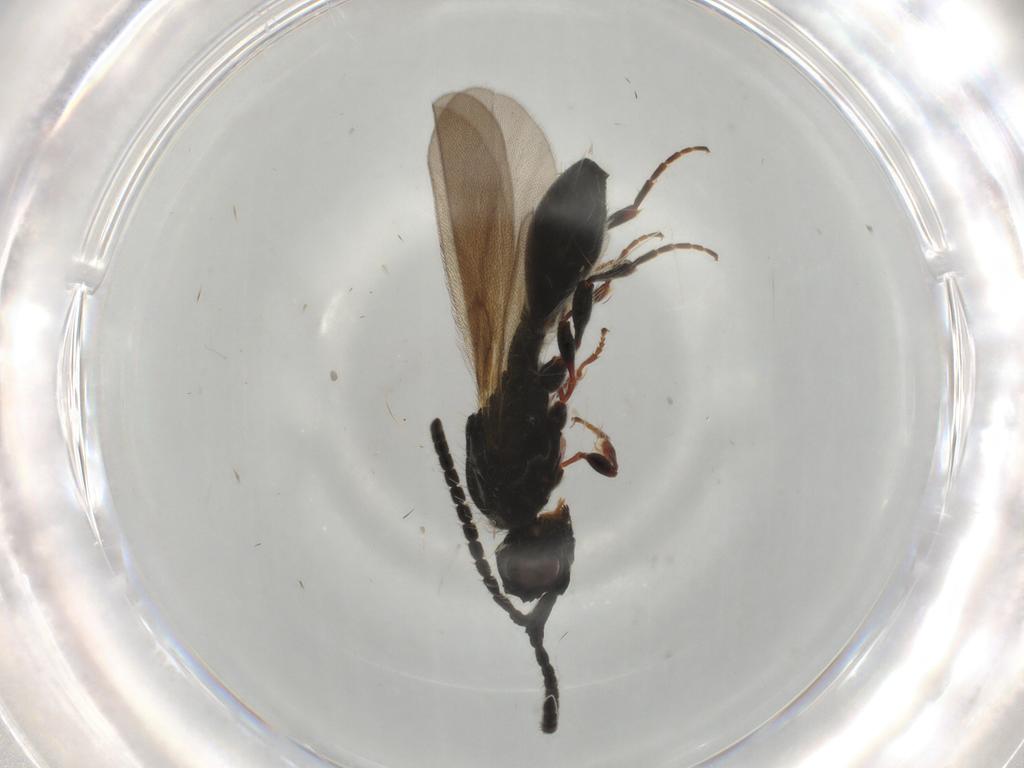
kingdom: Animalia
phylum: Arthropoda
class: Insecta
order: Hymenoptera
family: Diapriidae
